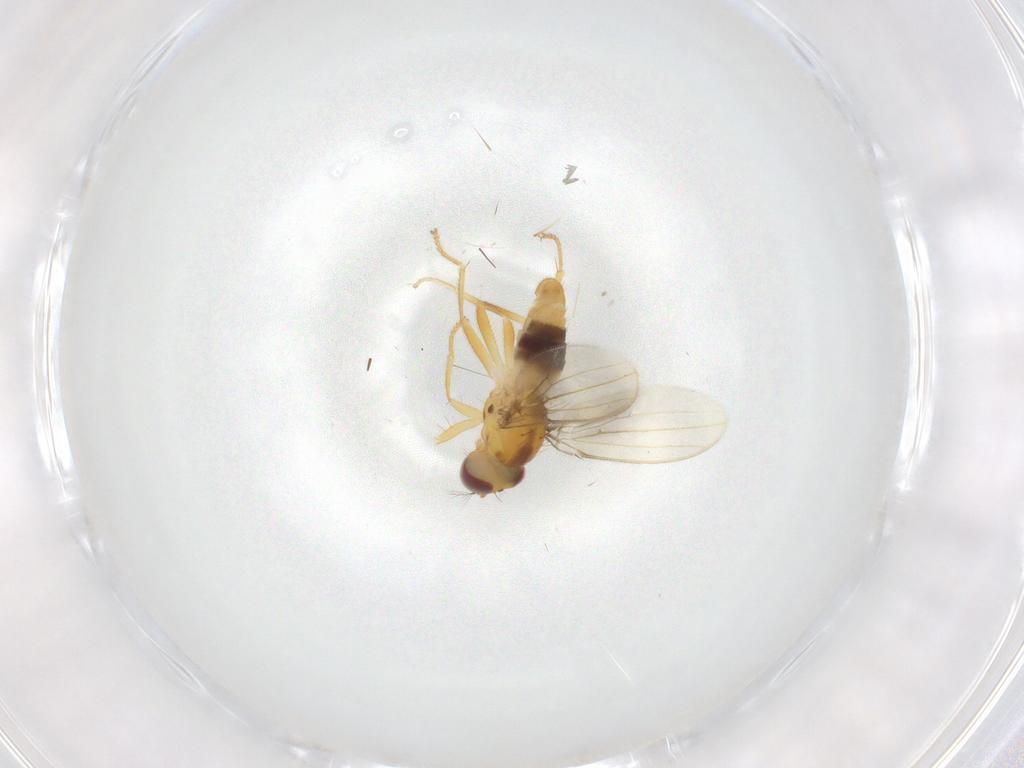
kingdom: Animalia
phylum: Arthropoda
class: Insecta
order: Diptera
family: Periscelididae
